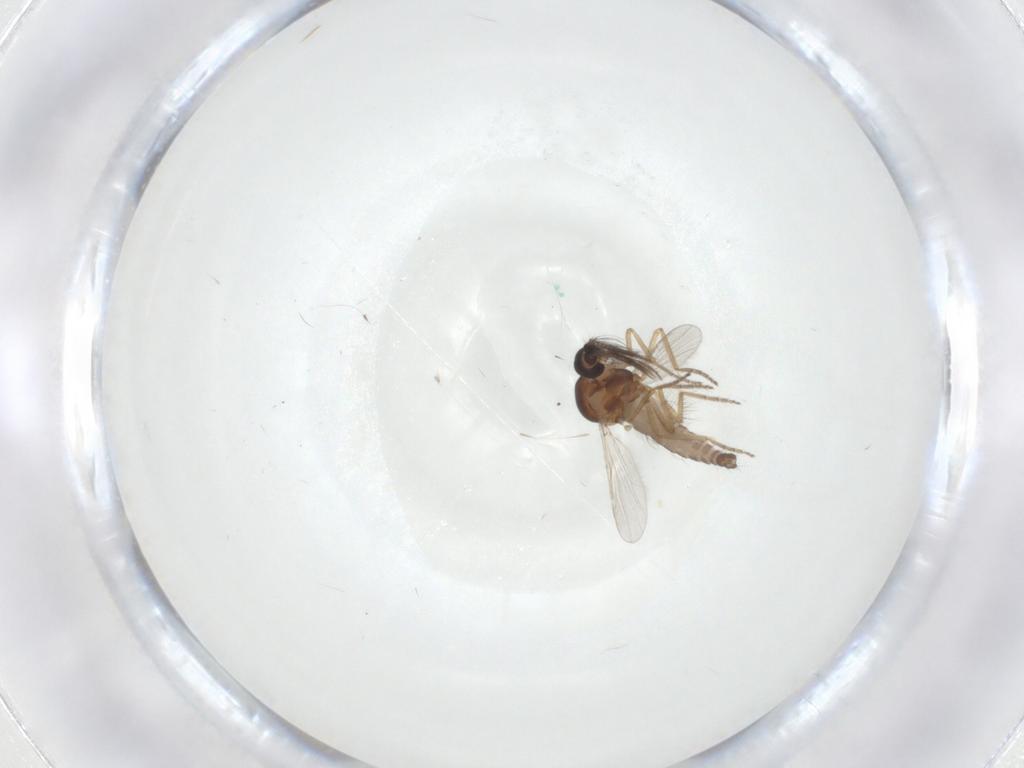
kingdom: Animalia
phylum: Arthropoda
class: Insecta
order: Diptera
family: Ceratopogonidae
